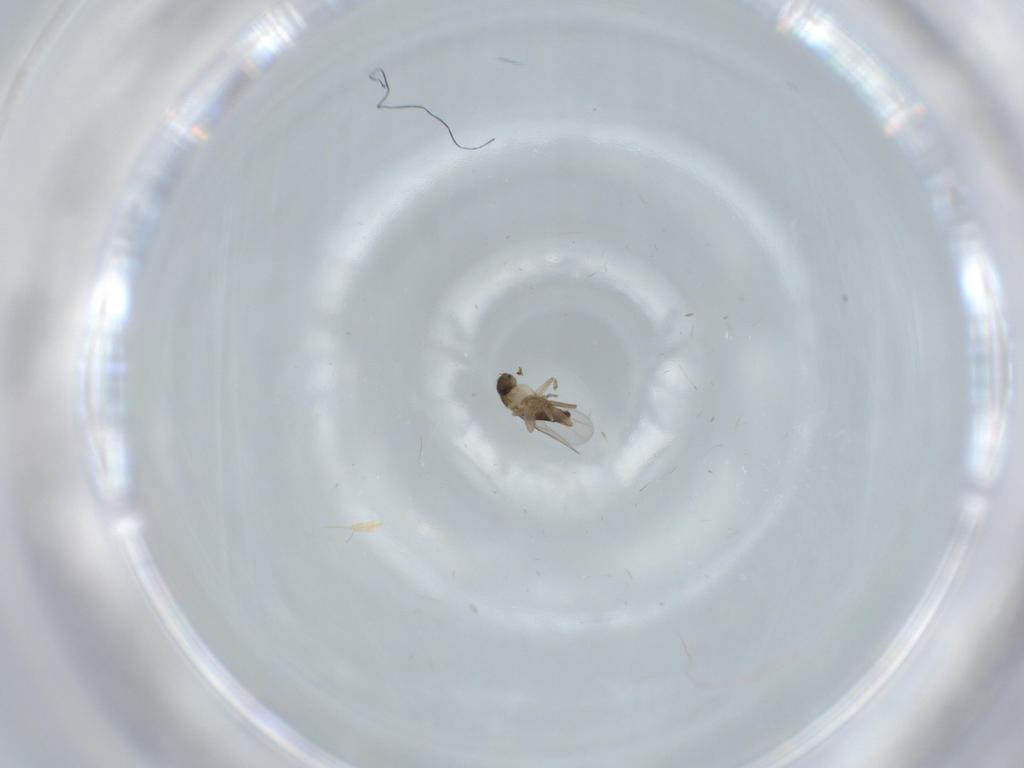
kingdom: Animalia
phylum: Arthropoda
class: Insecta
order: Diptera
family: Phoridae
